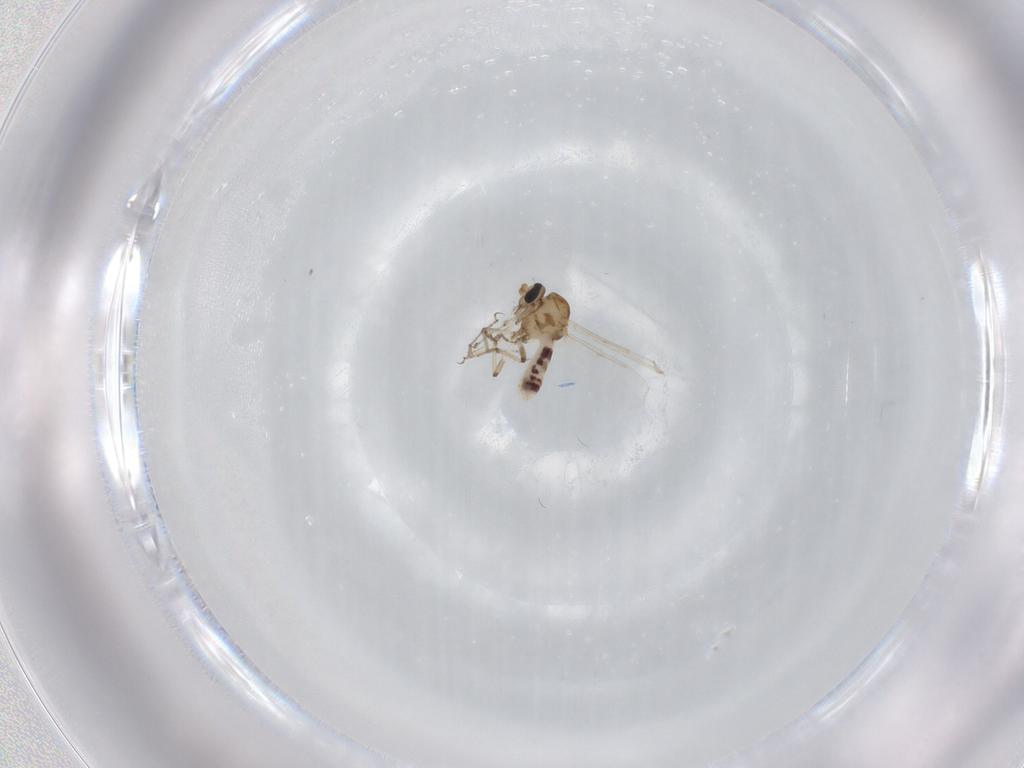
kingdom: Animalia
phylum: Arthropoda
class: Insecta
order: Diptera
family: Ceratopogonidae
